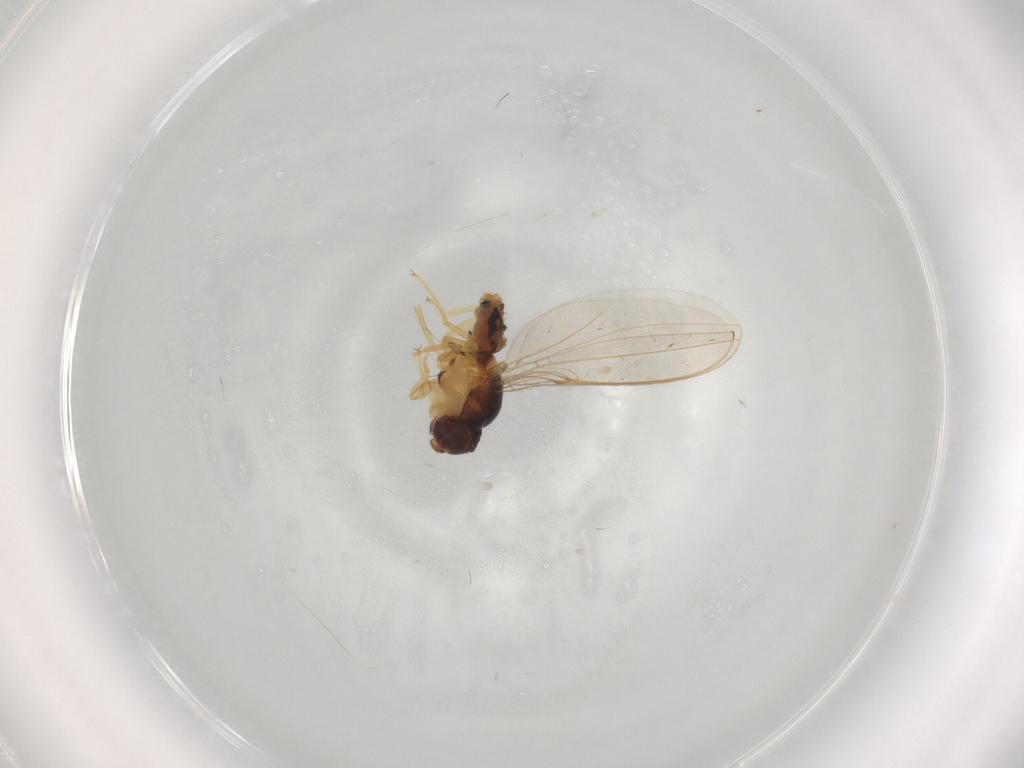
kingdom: Animalia
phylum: Arthropoda
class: Insecta
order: Diptera
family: Asteiidae
